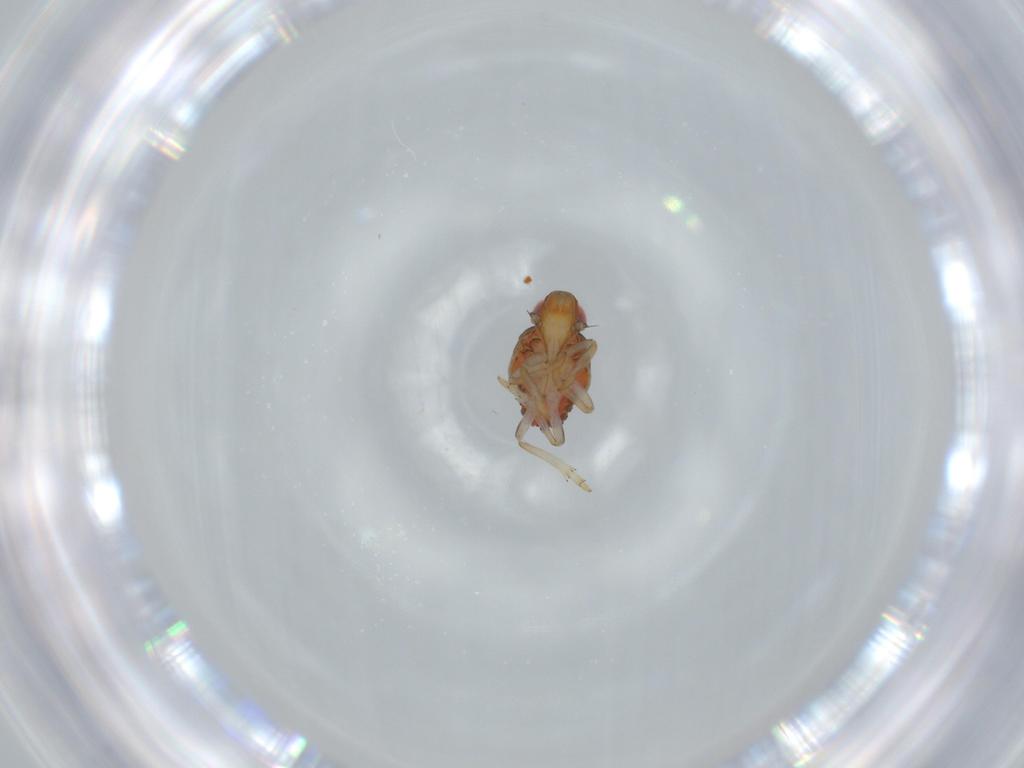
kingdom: Animalia
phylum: Arthropoda
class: Insecta
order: Hemiptera
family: Issidae
